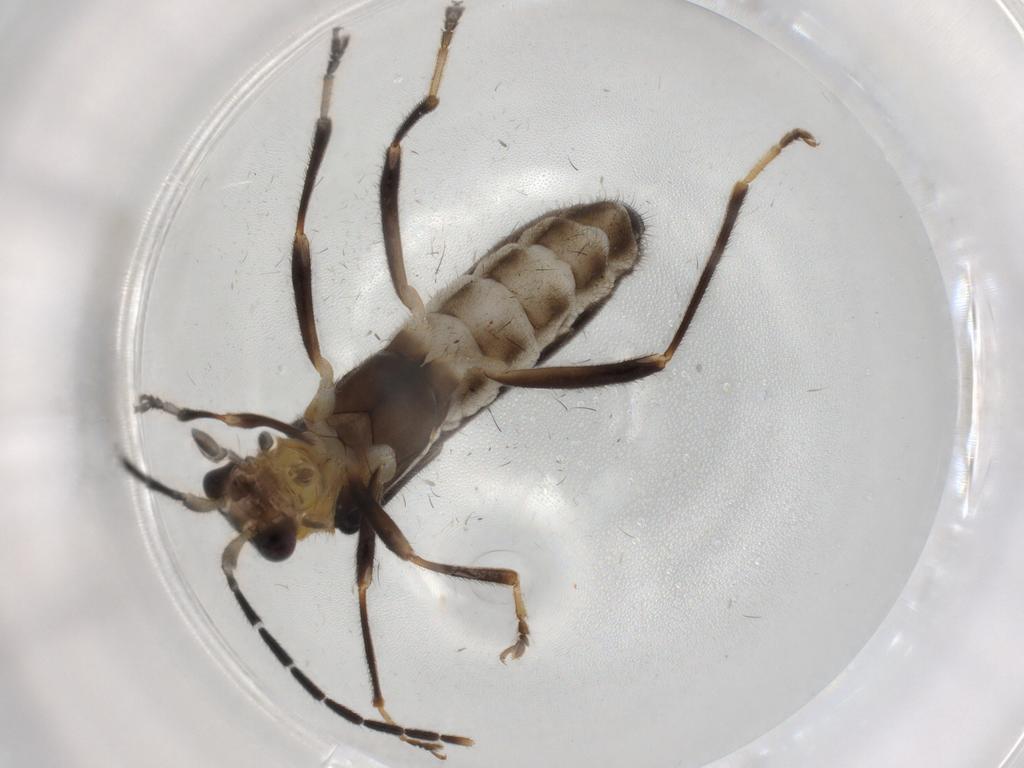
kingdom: Animalia
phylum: Arthropoda
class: Insecta
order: Coleoptera
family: Cantharidae
